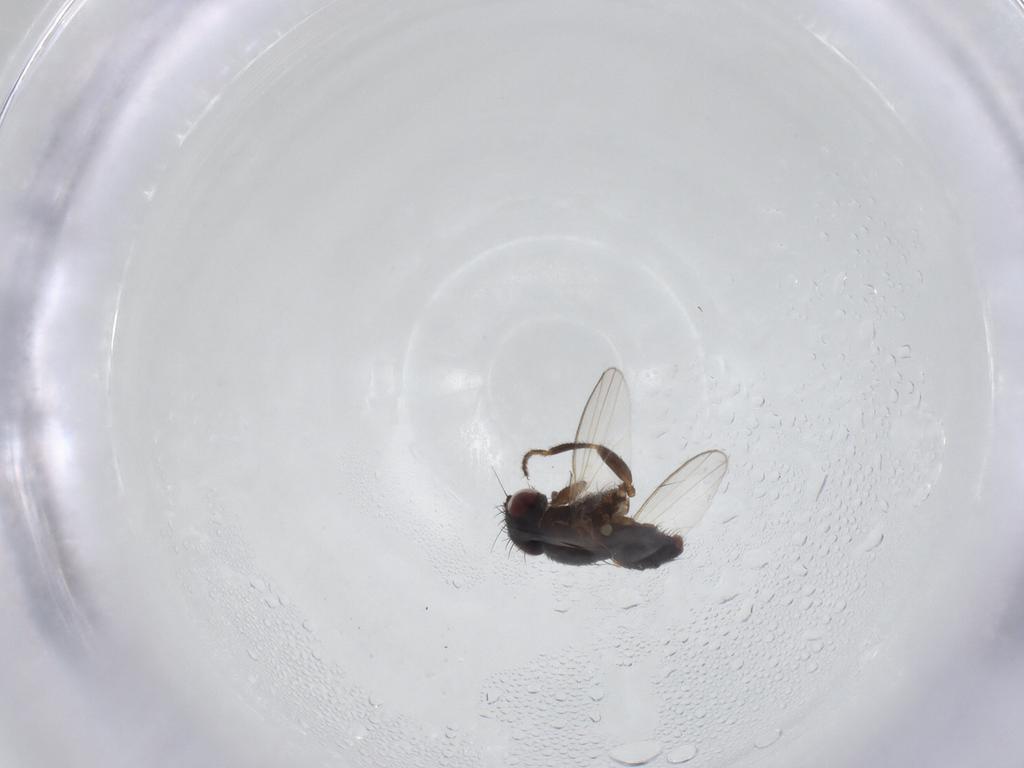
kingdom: Animalia
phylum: Arthropoda
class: Insecta
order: Diptera
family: Milichiidae
